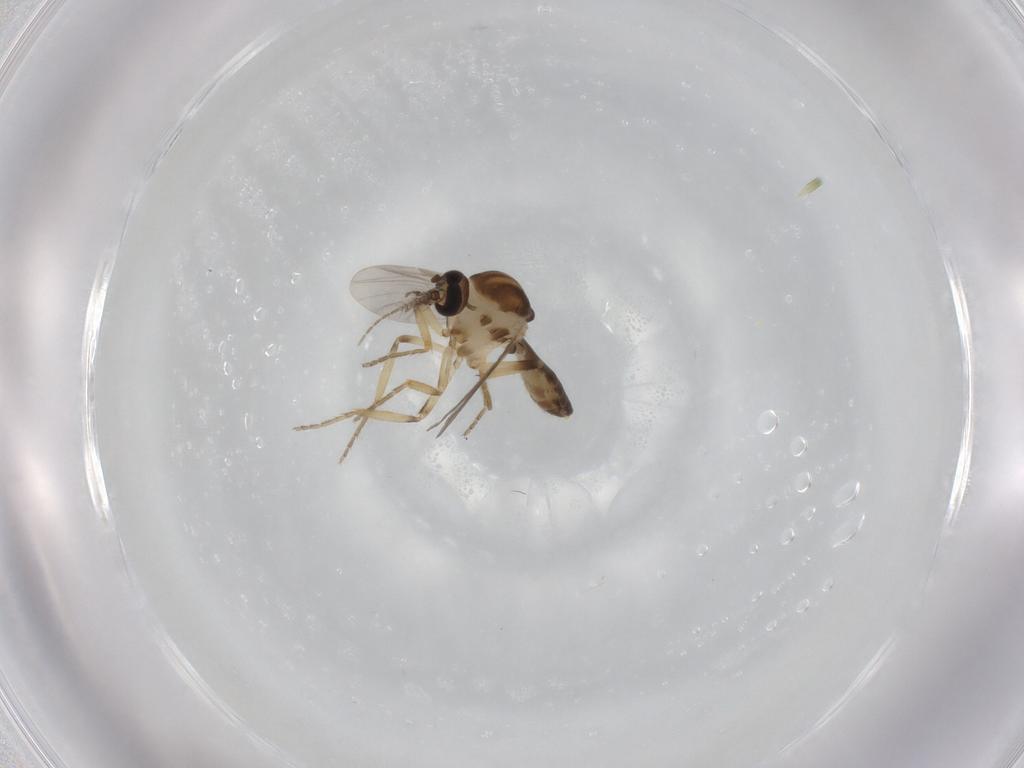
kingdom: Animalia
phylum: Arthropoda
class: Insecta
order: Diptera
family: Ceratopogonidae
